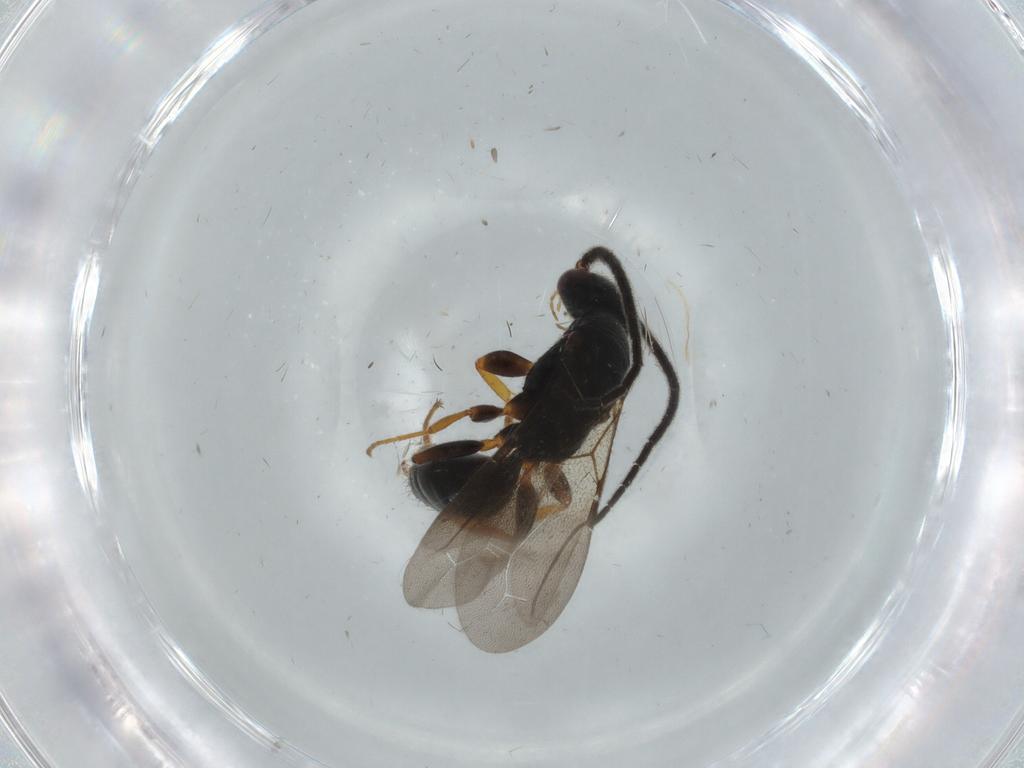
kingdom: Animalia
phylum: Arthropoda
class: Insecta
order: Hymenoptera
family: Bethylidae
